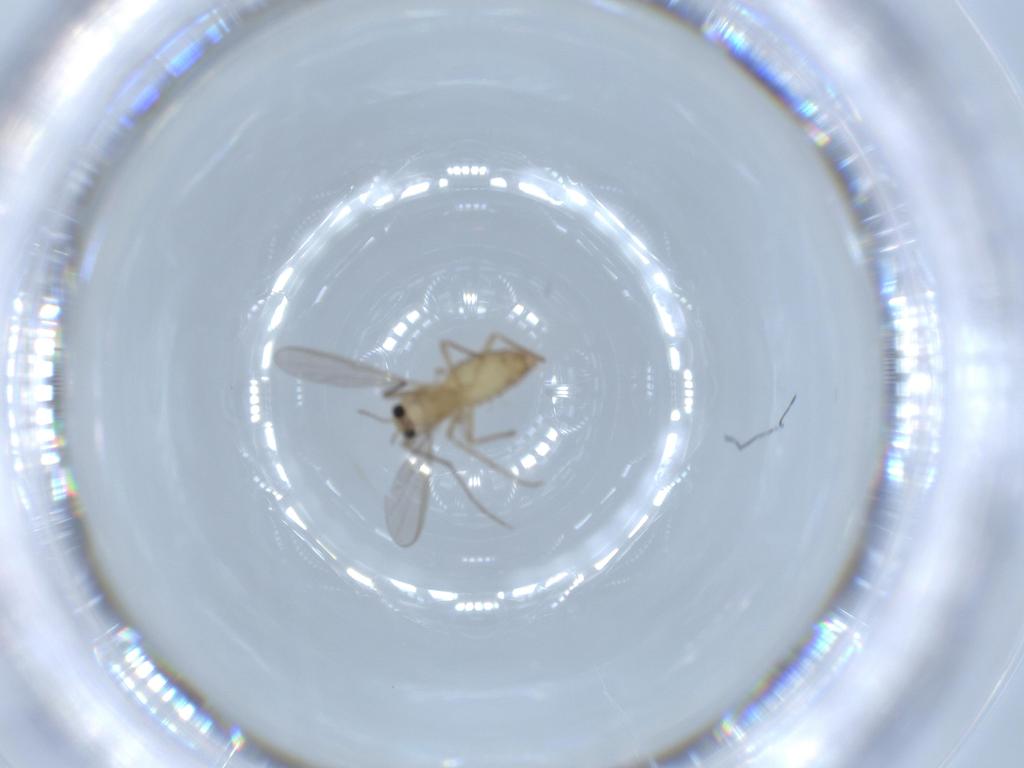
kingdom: Animalia
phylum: Arthropoda
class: Insecta
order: Diptera
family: Chironomidae
